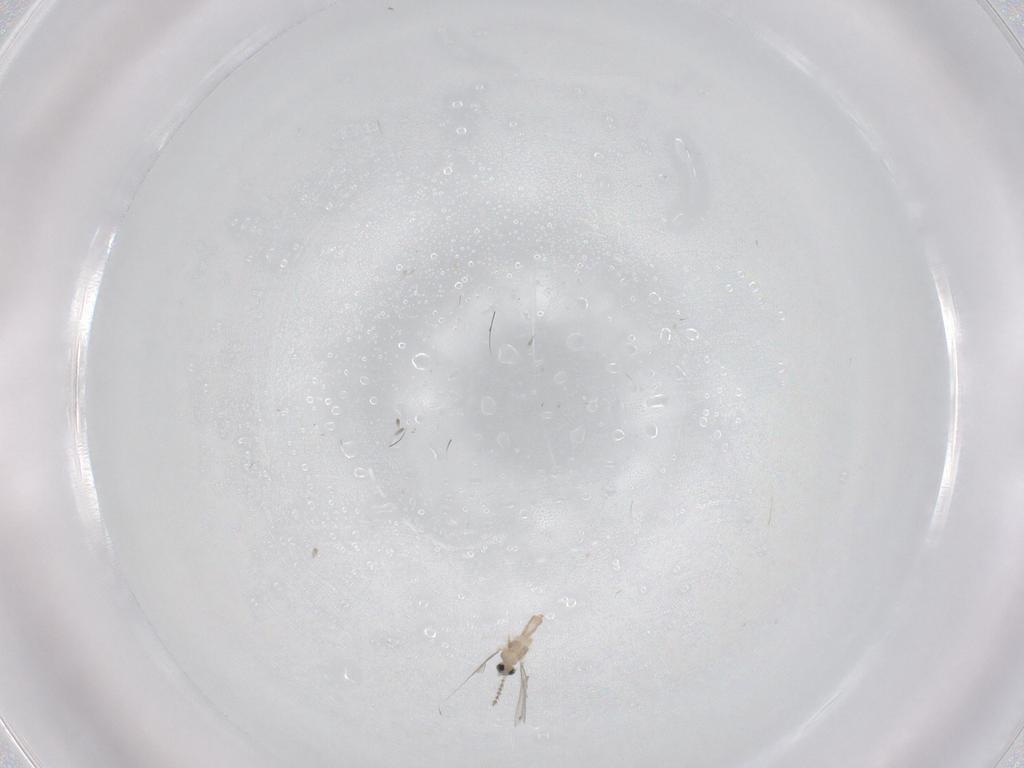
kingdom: Animalia
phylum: Arthropoda
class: Insecta
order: Diptera
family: Cecidomyiidae
